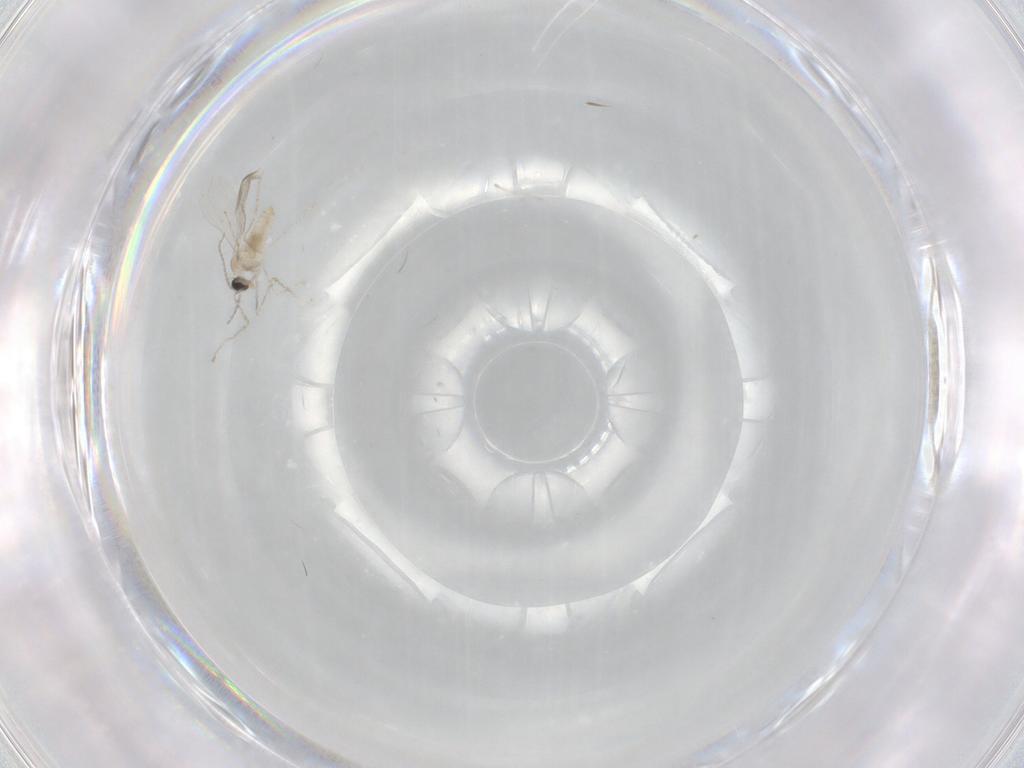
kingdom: Animalia
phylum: Arthropoda
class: Insecta
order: Diptera
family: Cecidomyiidae
